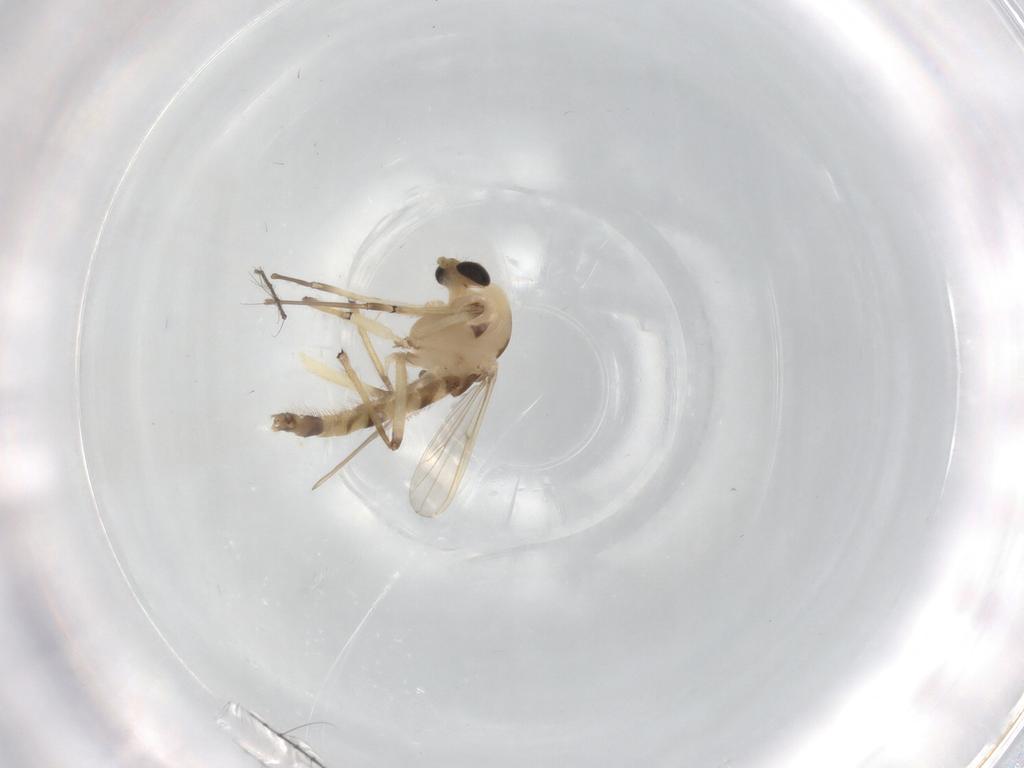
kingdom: Animalia
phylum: Arthropoda
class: Insecta
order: Diptera
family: Chironomidae
